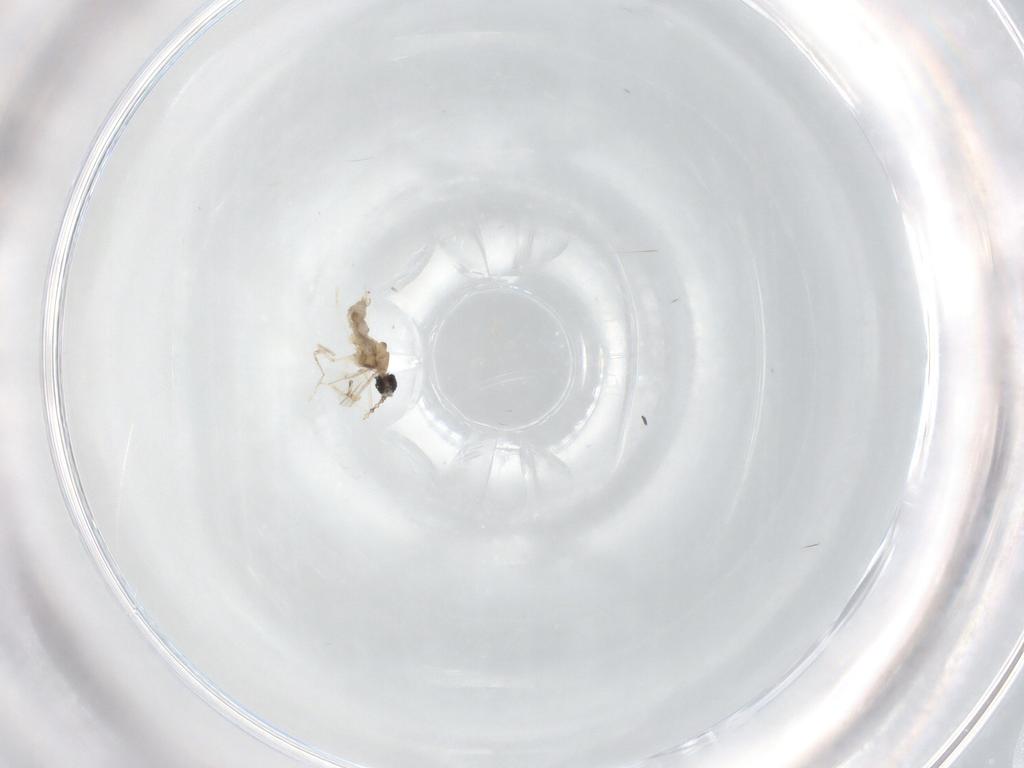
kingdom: Animalia
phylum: Arthropoda
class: Insecta
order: Diptera
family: Cecidomyiidae
